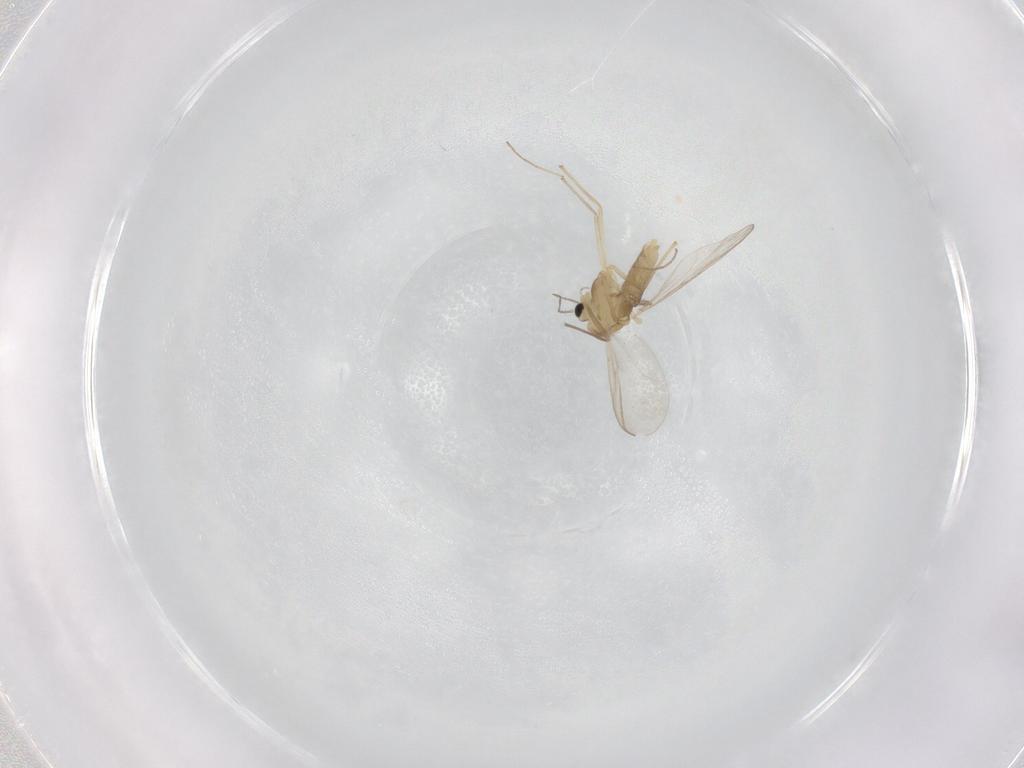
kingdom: Animalia
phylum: Arthropoda
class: Insecta
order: Diptera
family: Chironomidae
